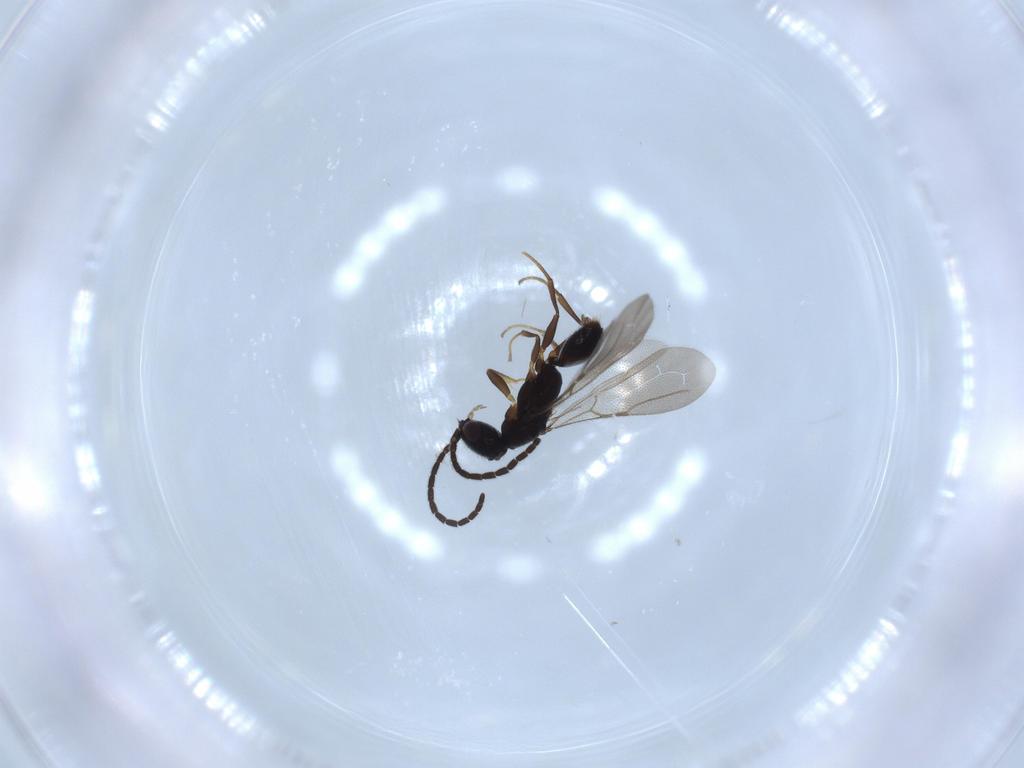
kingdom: Animalia
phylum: Arthropoda
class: Insecta
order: Hymenoptera
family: Bethylidae
